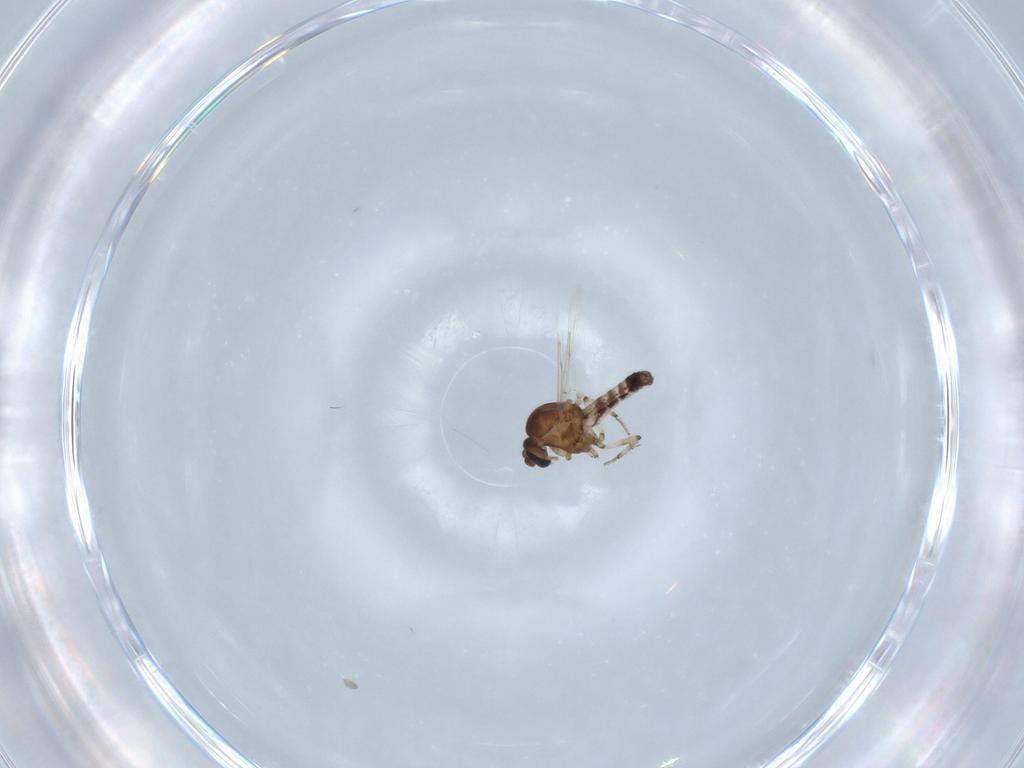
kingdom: Animalia
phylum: Arthropoda
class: Insecta
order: Diptera
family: Ceratopogonidae
